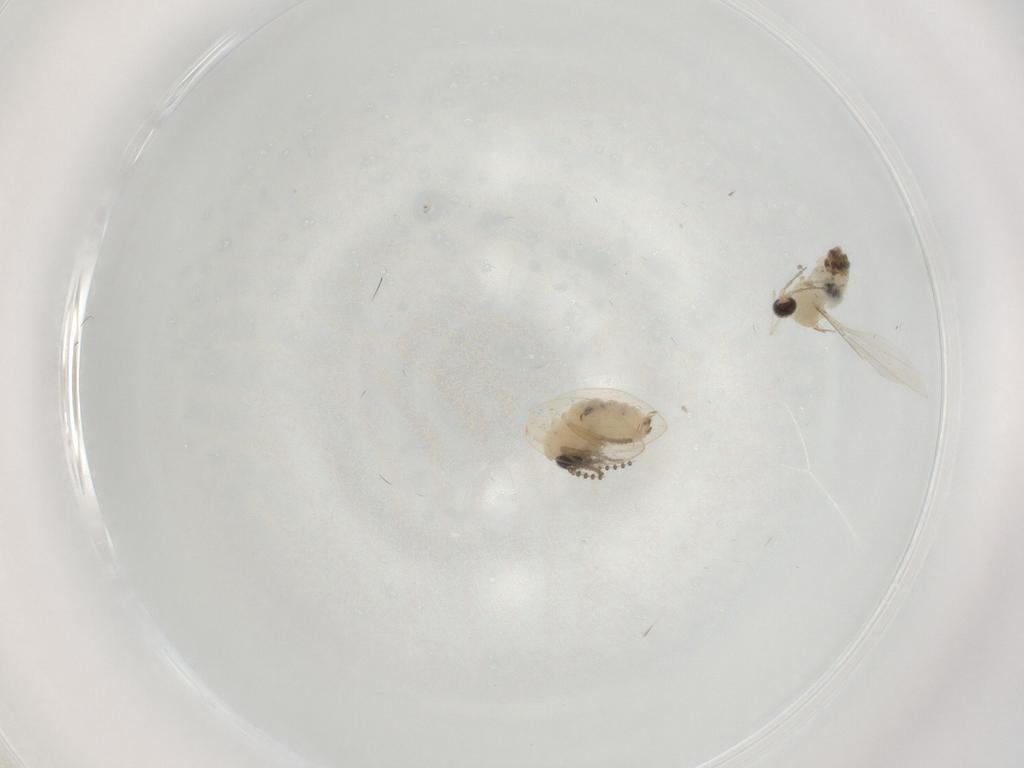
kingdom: Animalia
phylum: Arthropoda
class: Insecta
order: Diptera
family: Psychodidae
